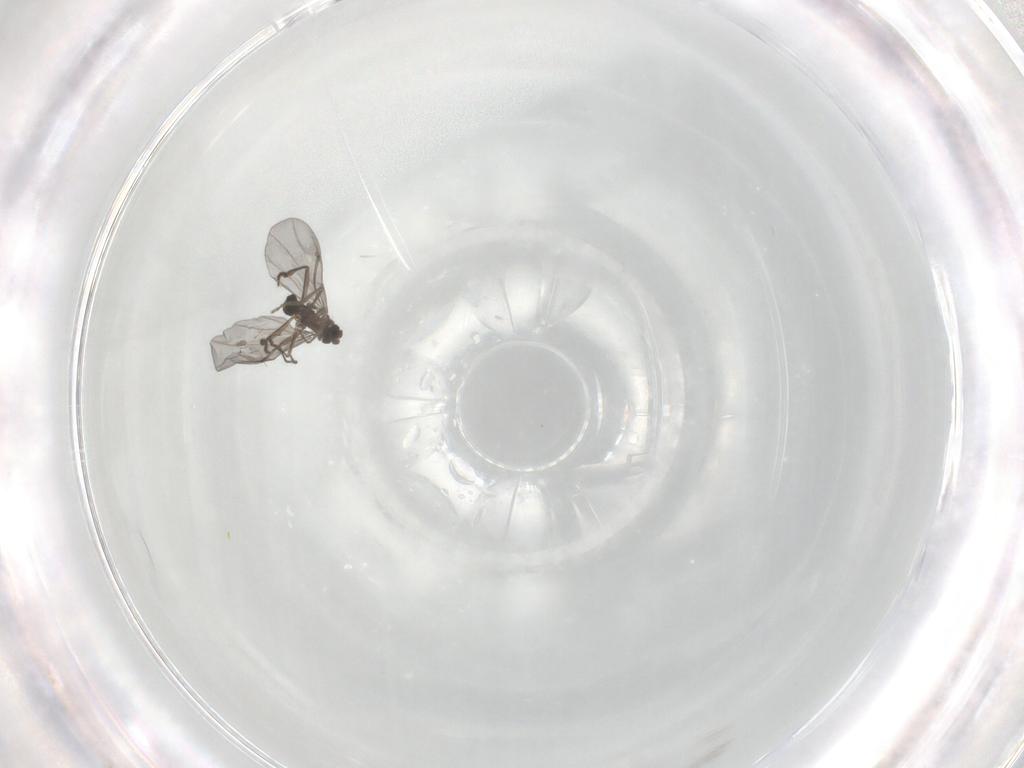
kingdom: Animalia
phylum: Arthropoda
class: Insecta
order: Diptera
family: Phoridae
